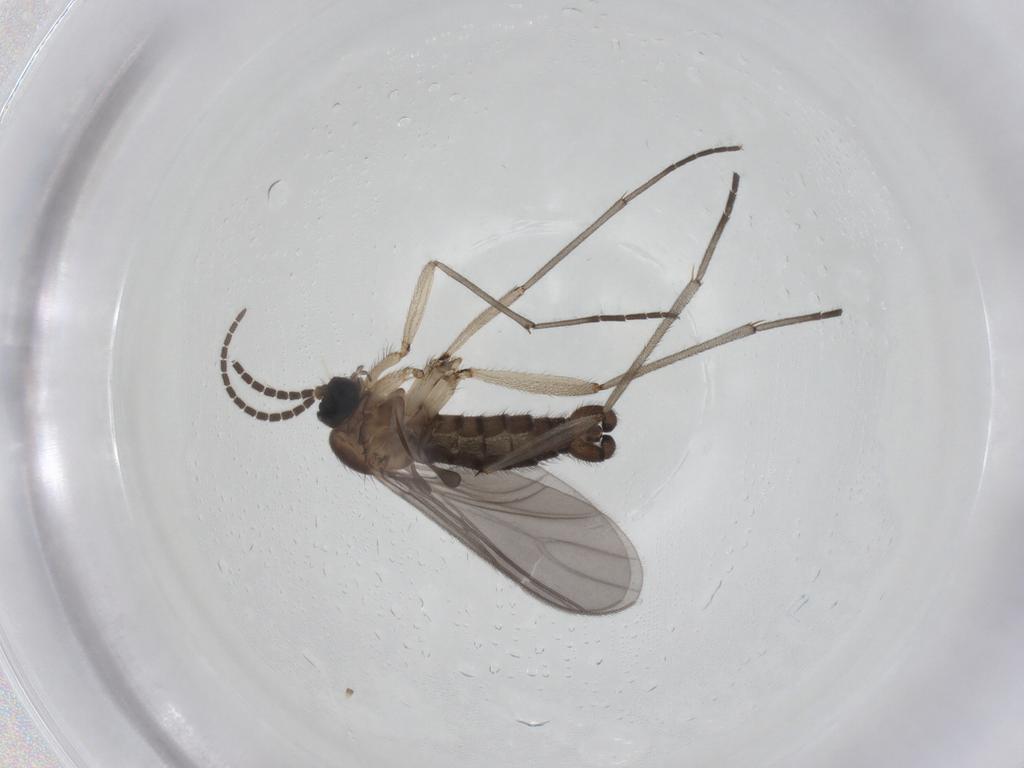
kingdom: Animalia
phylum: Arthropoda
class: Insecta
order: Diptera
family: Sciaridae
